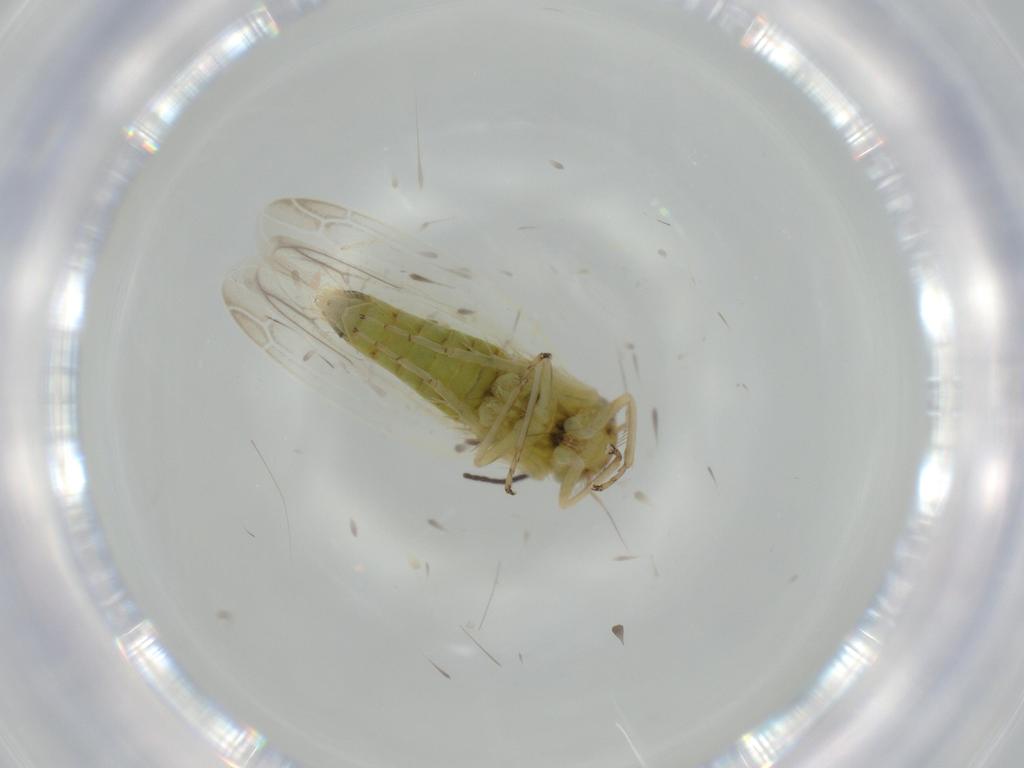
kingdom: Animalia
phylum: Arthropoda
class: Insecta
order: Hemiptera
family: Cicadellidae
